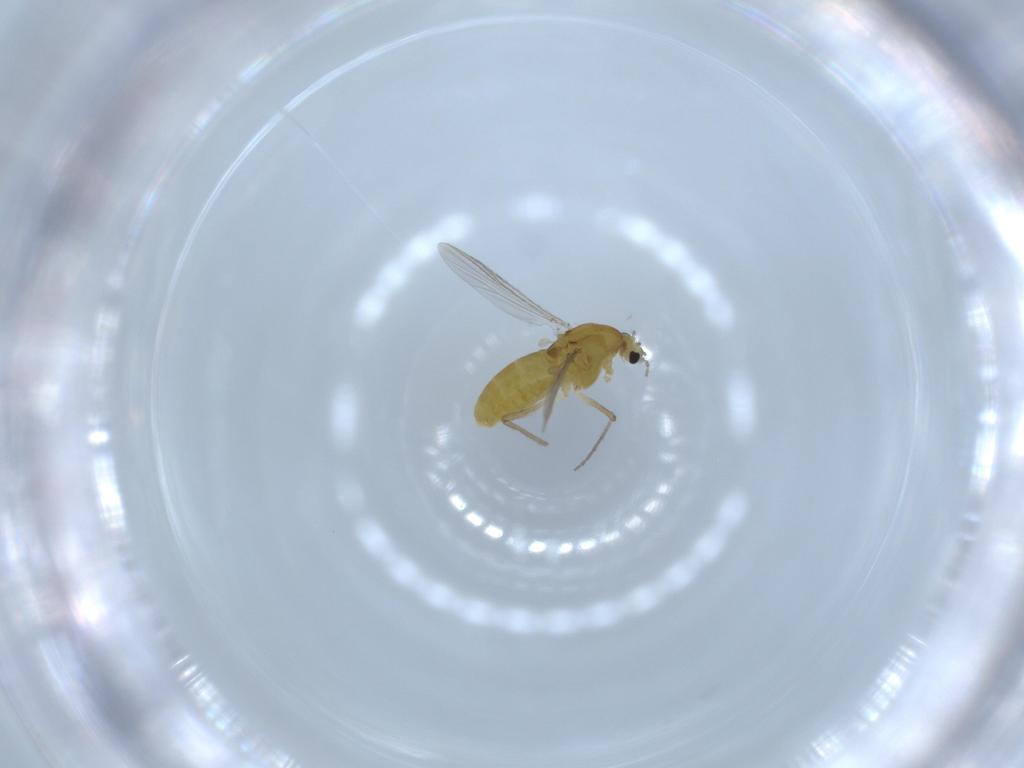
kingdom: Animalia
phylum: Arthropoda
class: Insecta
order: Diptera
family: Chironomidae
